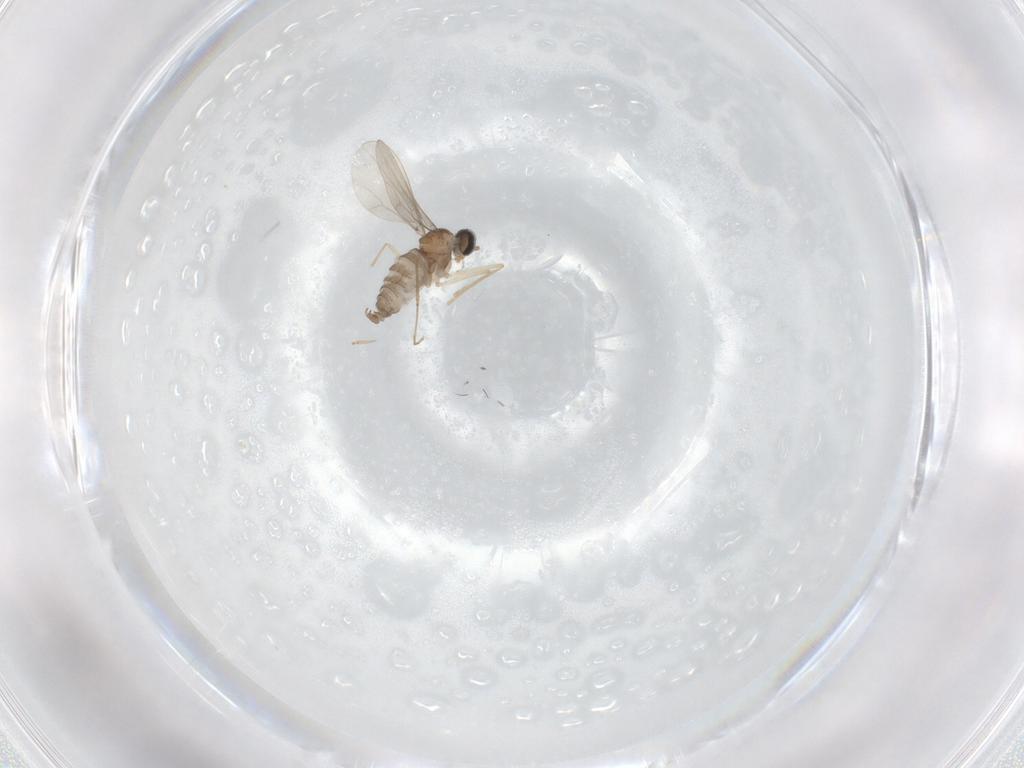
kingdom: Animalia
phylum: Arthropoda
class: Insecta
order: Diptera
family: Cecidomyiidae
